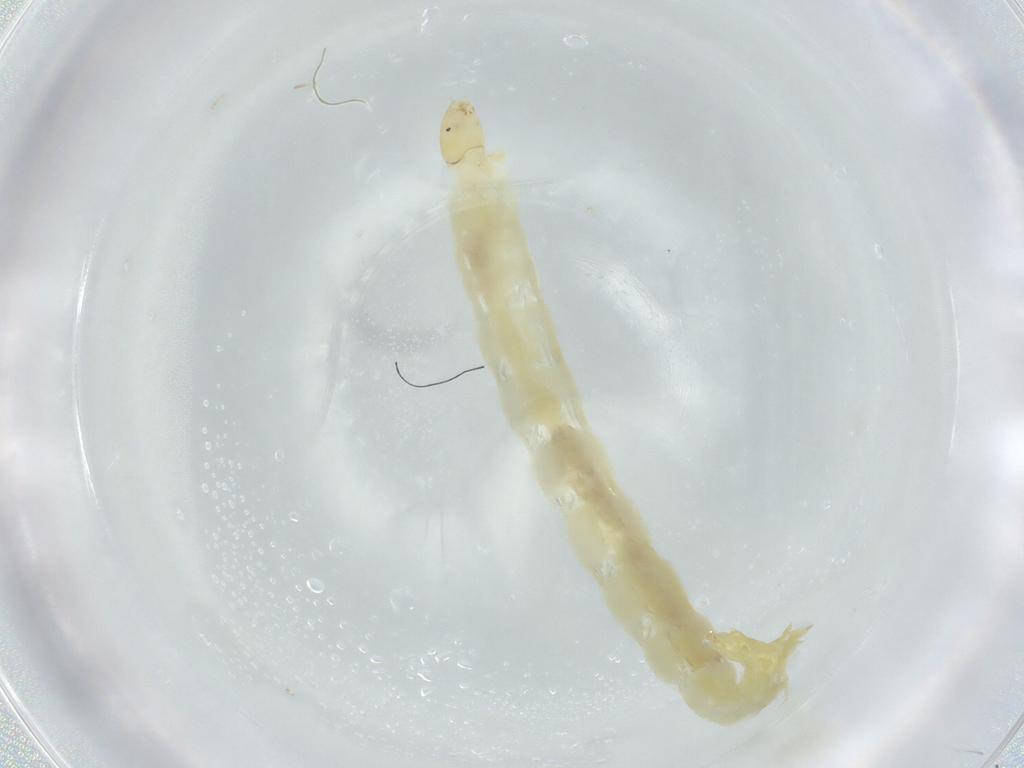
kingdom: Animalia
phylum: Arthropoda
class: Insecta
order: Diptera
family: Chironomidae
